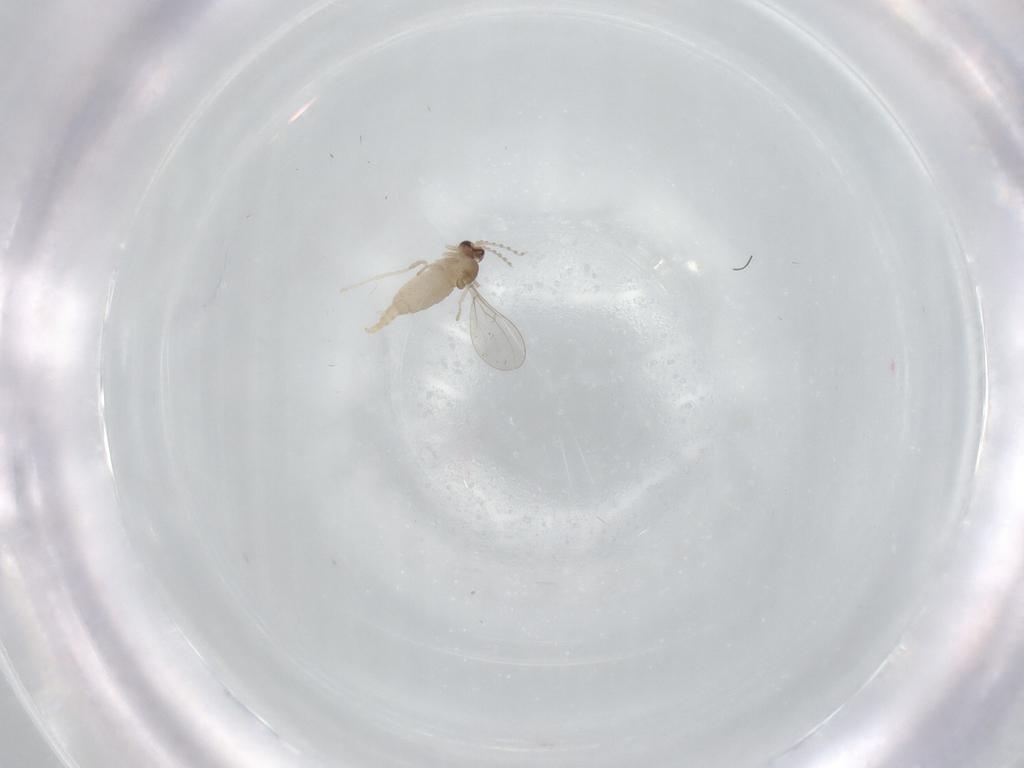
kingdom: Animalia
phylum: Arthropoda
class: Insecta
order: Diptera
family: Cecidomyiidae
